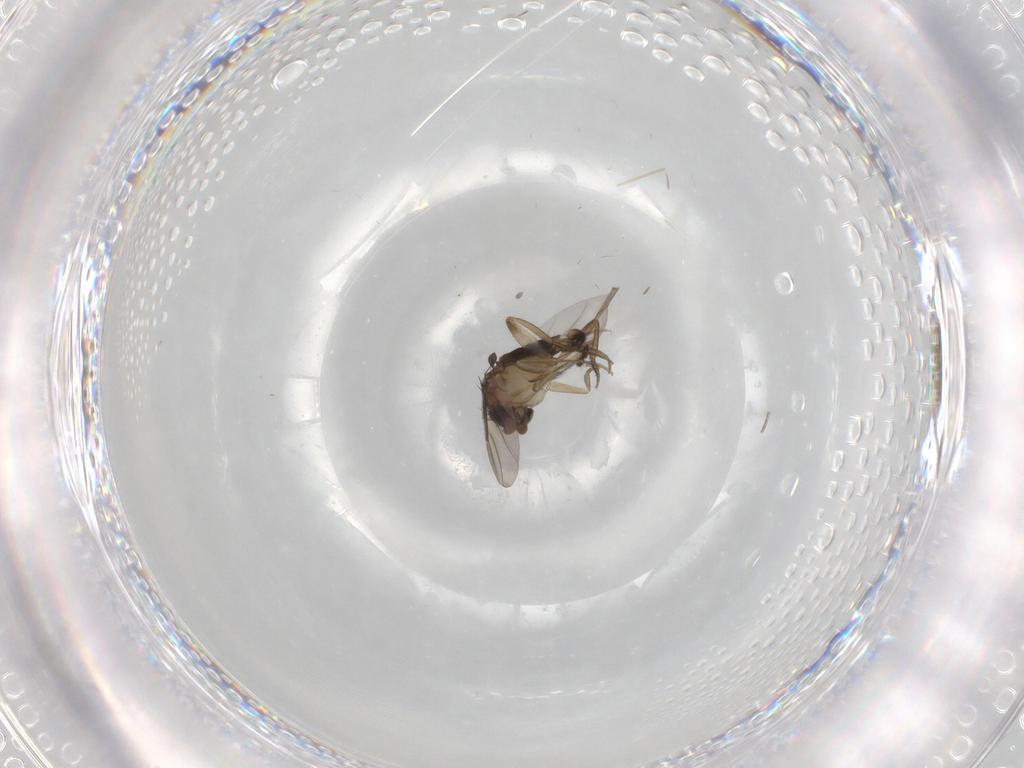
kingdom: Animalia
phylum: Arthropoda
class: Insecta
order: Diptera
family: Phoridae
